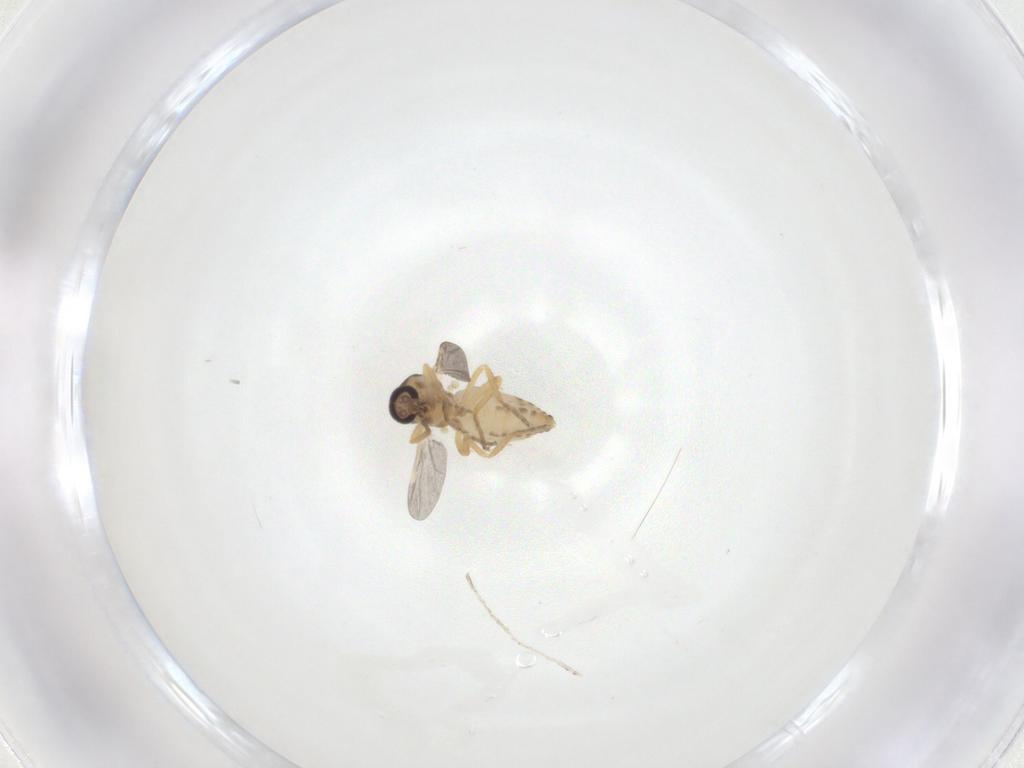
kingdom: Animalia
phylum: Arthropoda
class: Insecta
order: Diptera
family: Ceratopogonidae
